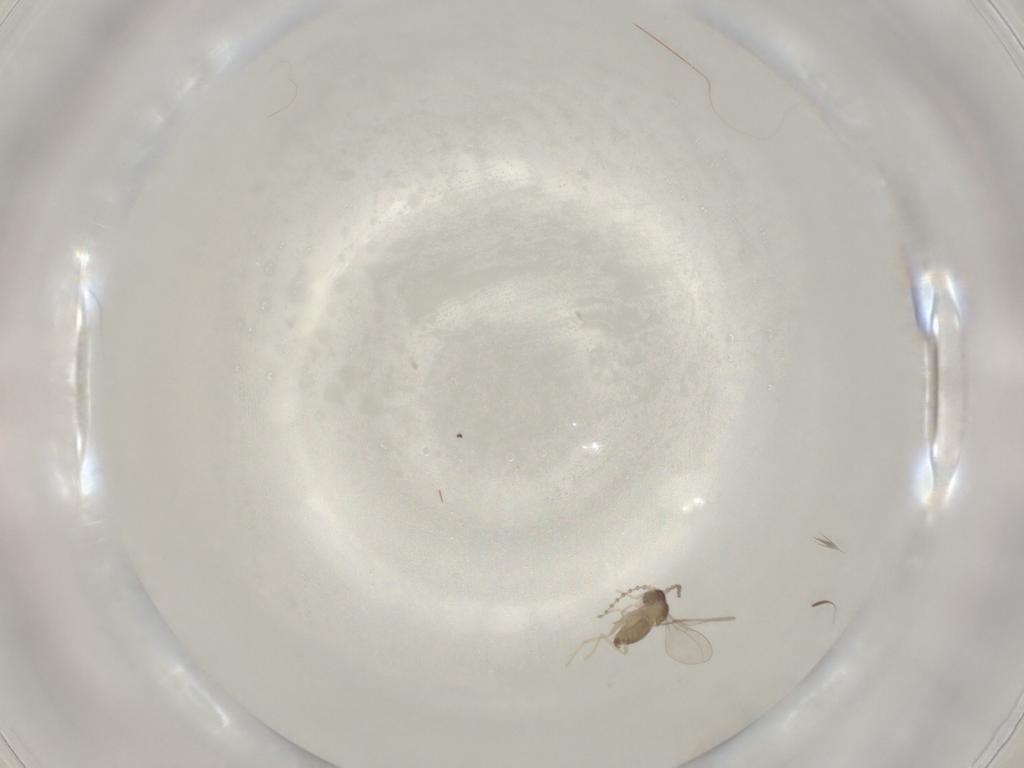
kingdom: Animalia
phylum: Arthropoda
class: Insecta
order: Diptera
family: Cecidomyiidae
